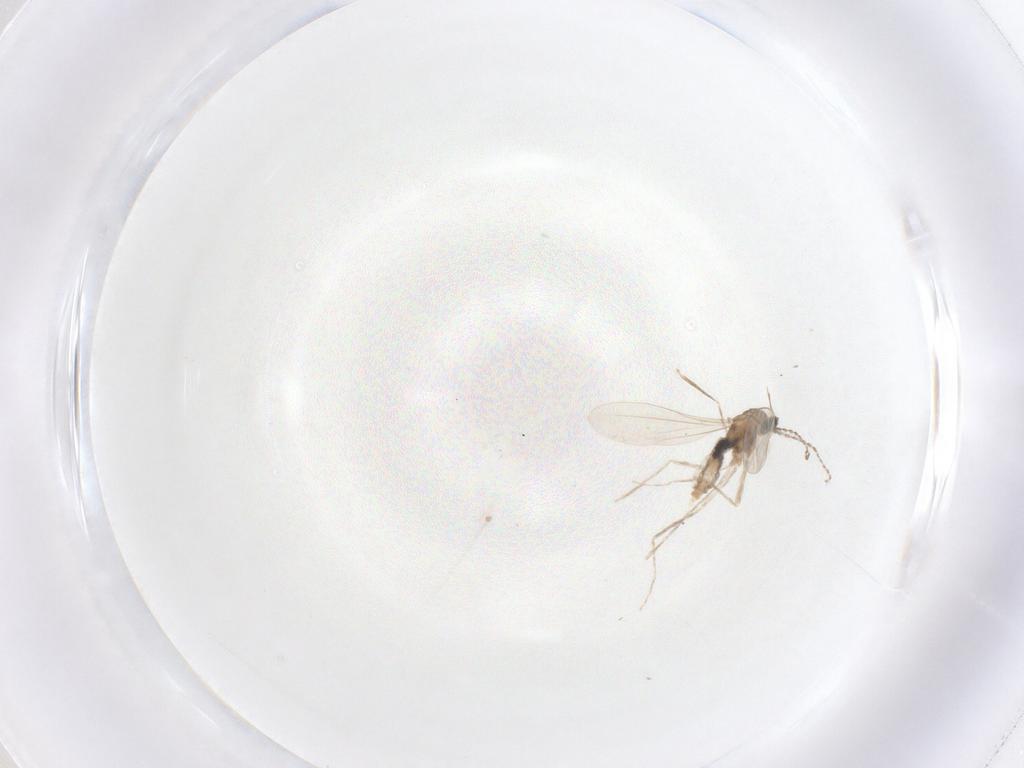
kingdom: Animalia
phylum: Arthropoda
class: Insecta
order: Diptera
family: Cecidomyiidae
